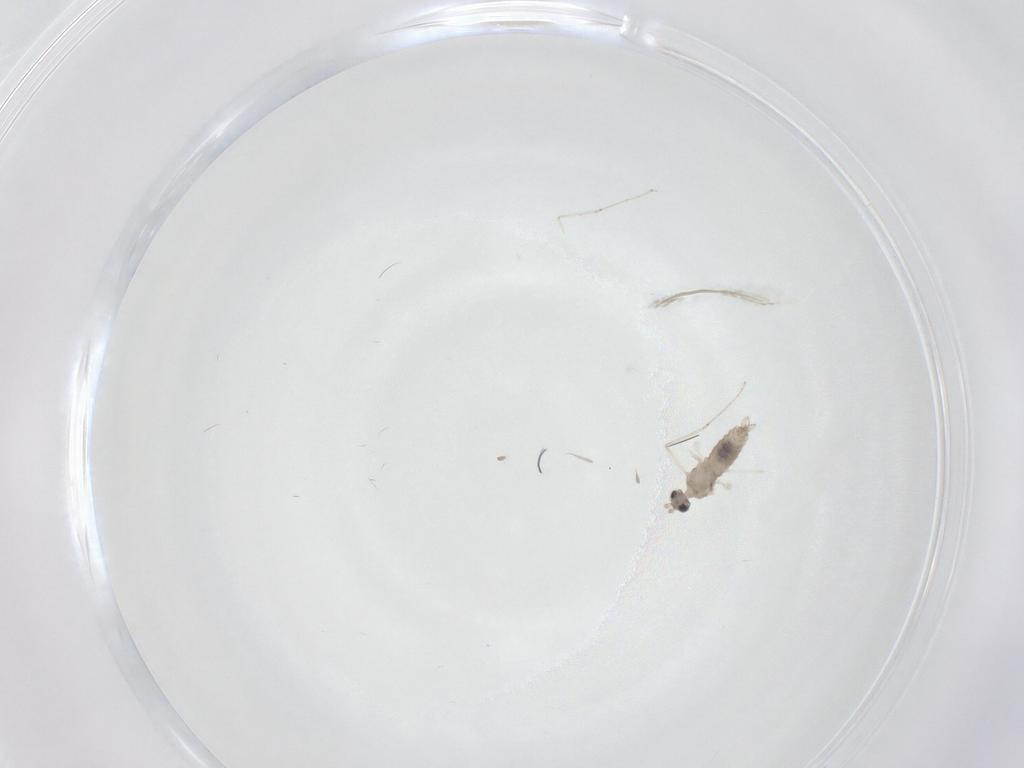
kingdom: Animalia
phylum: Arthropoda
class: Insecta
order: Diptera
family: Cecidomyiidae
